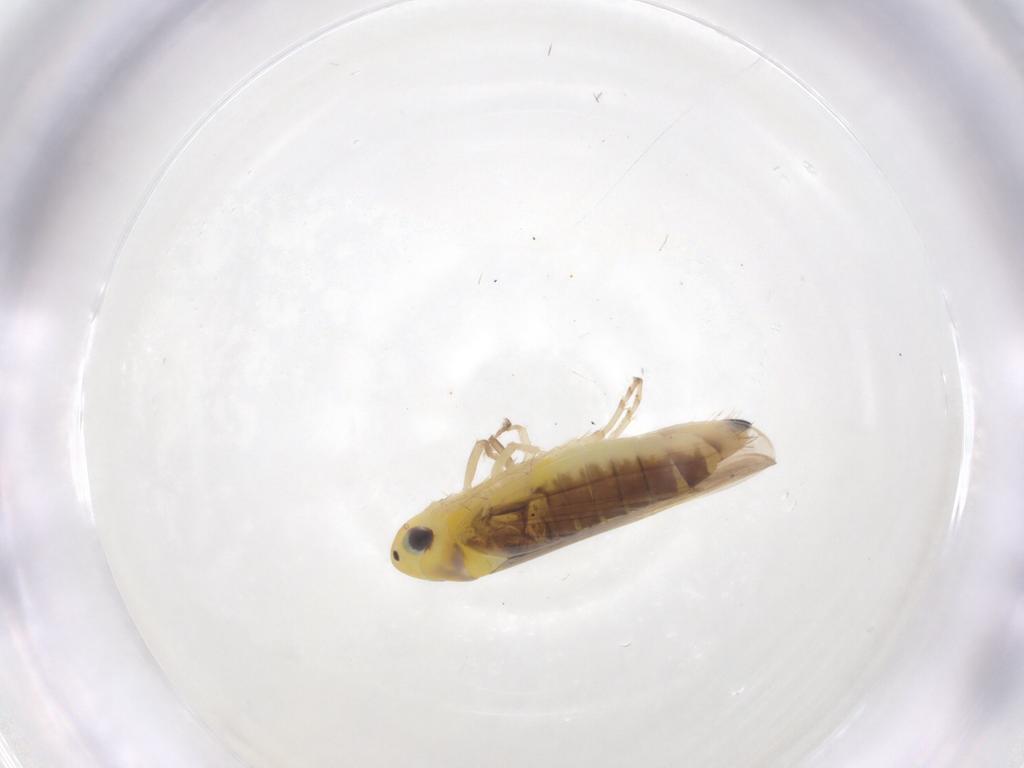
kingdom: Animalia
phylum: Arthropoda
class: Insecta
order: Hemiptera
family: Cicadellidae
